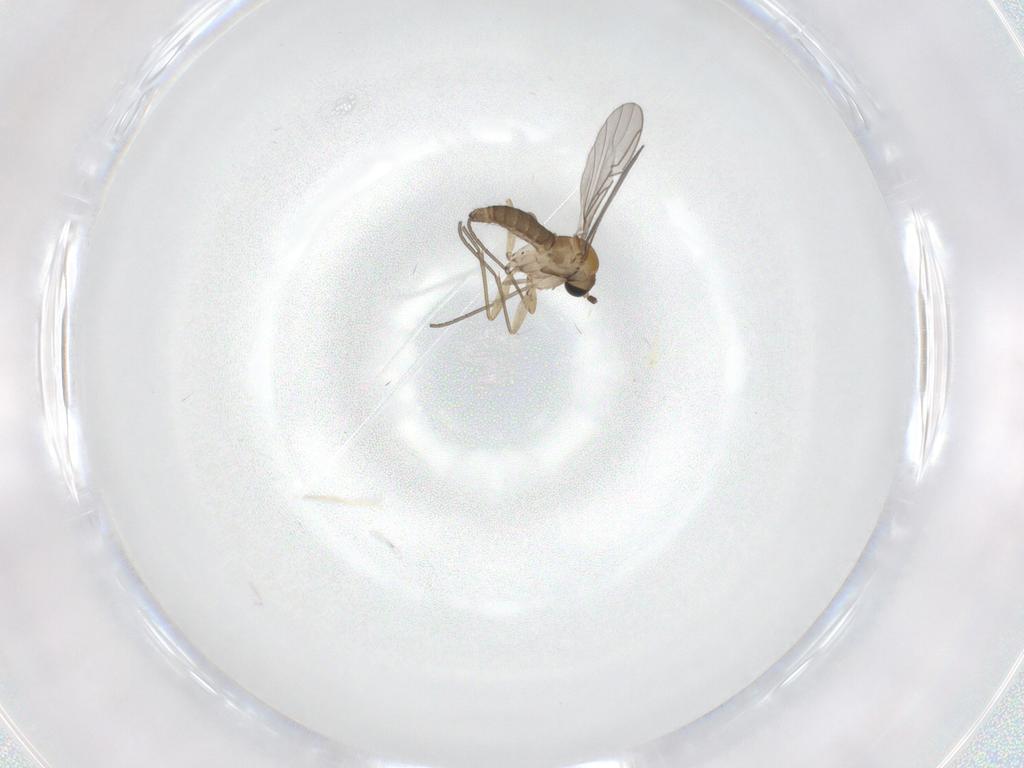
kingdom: Animalia
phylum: Arthropoda
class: Insecta
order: Diptera
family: Sciaridae
